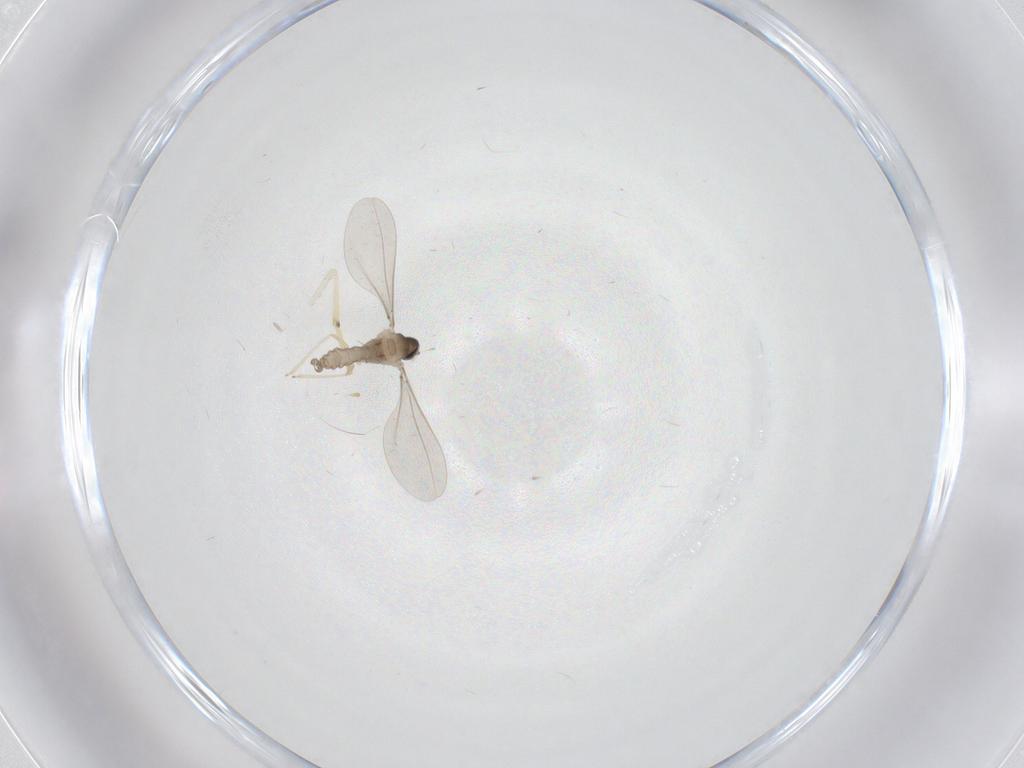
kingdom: Animalia
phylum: Arthropoda
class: Insecta
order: Diptera
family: Psychodidae
